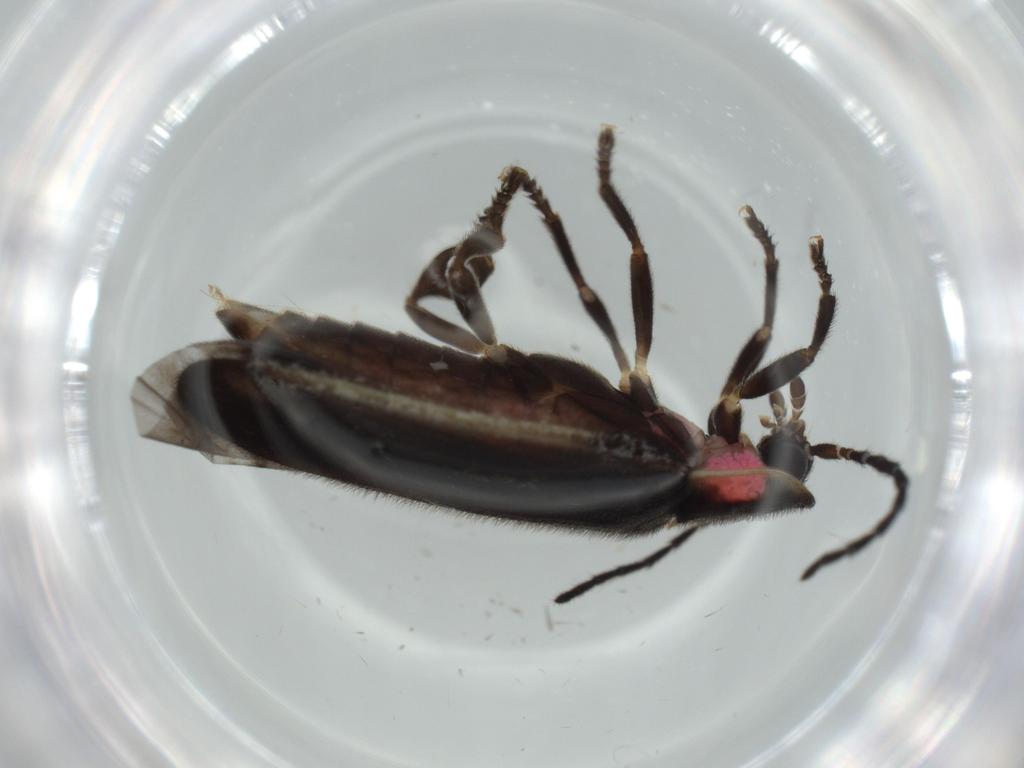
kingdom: Animalia
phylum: Arthropoda
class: Insecta
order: Coleoptera
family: Lampyridae
